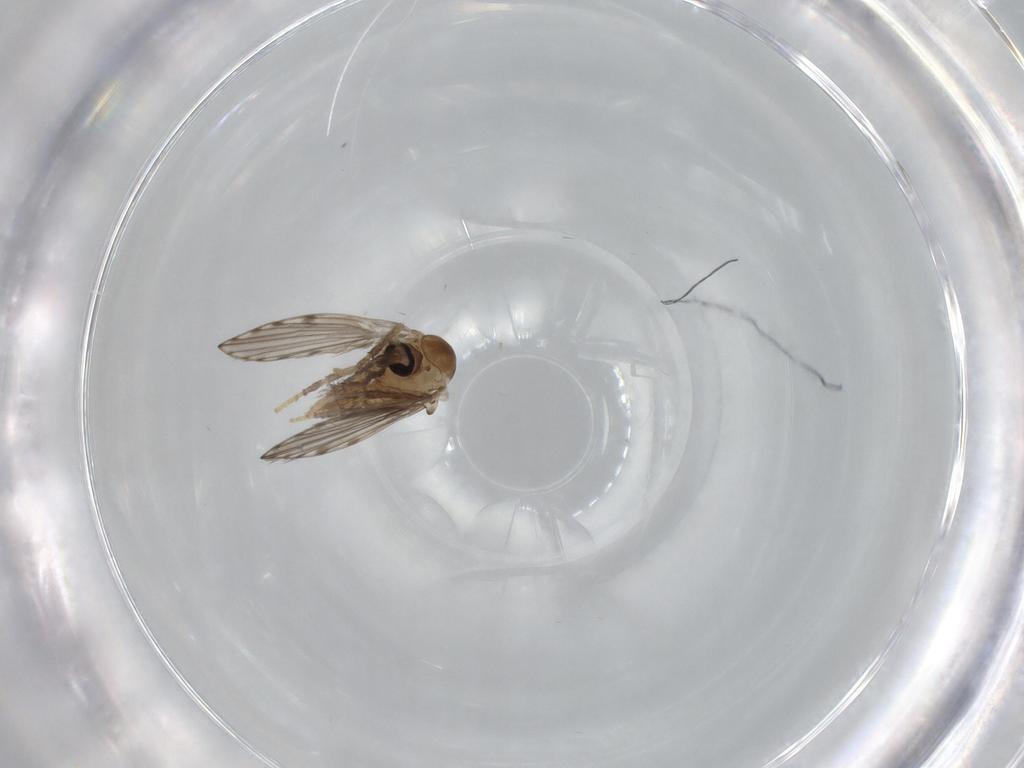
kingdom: Animalia
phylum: Arthropoda
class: Insecta
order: Diptera
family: Psychodidae
